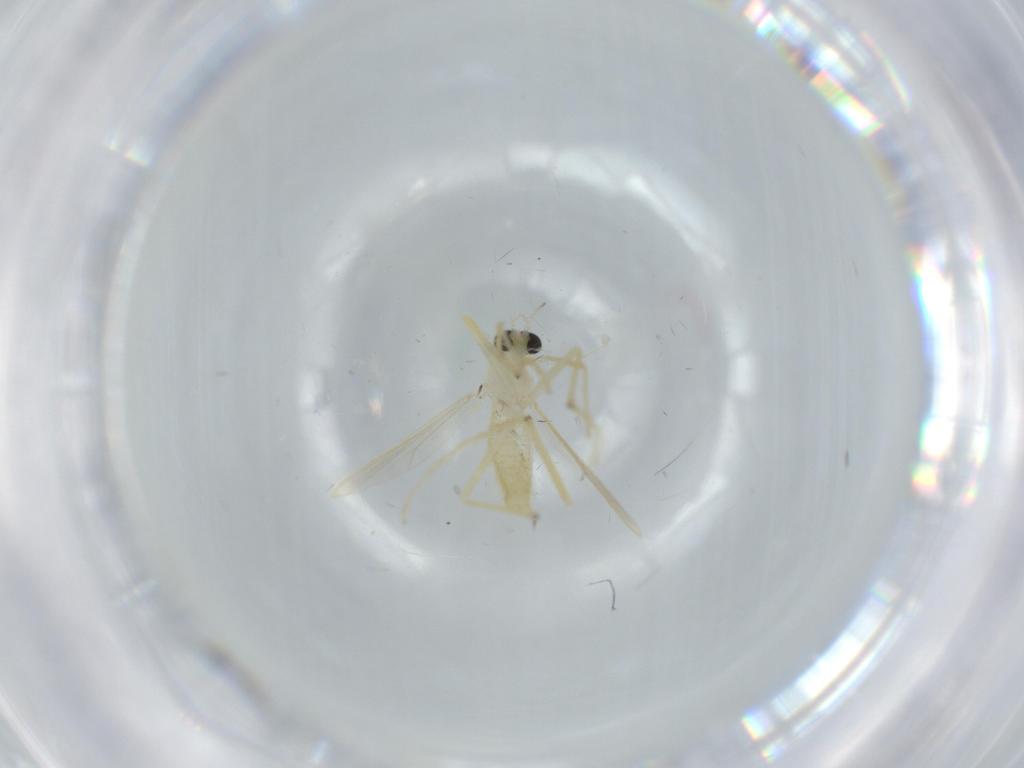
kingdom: Animalia
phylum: Arthropoda
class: Insecta
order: Diptera
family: Chironomidae
